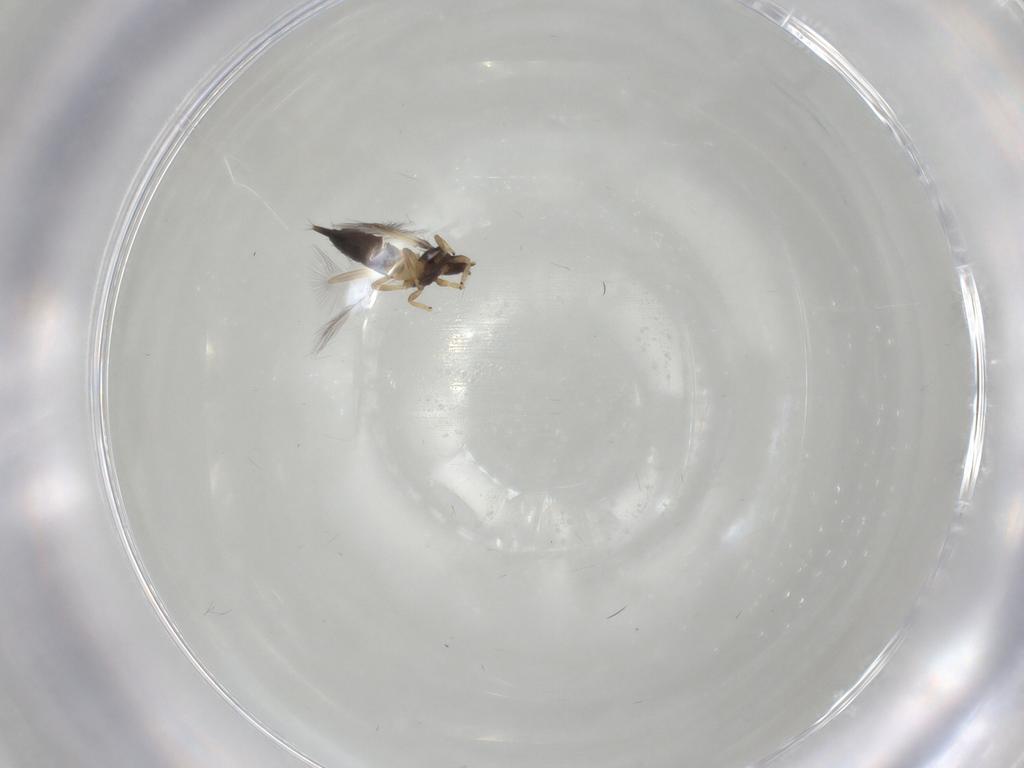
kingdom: Animalia
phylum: Arthropoda
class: Insecta
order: Thysanoptera
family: Phlaeothripidae
